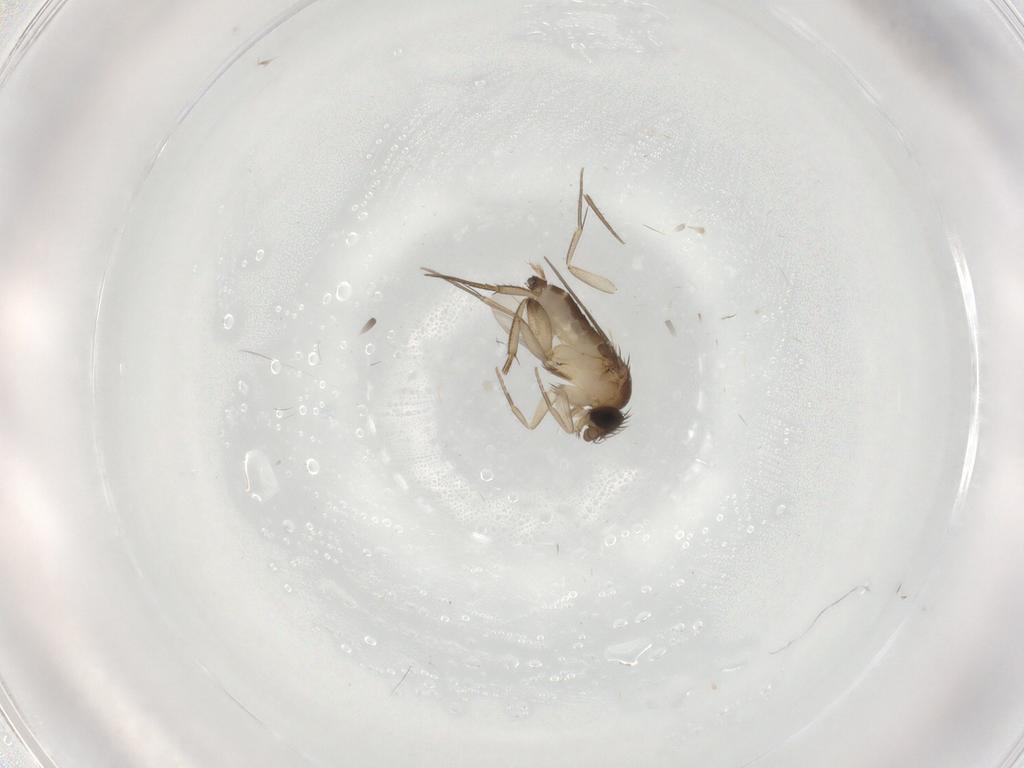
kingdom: Animalia
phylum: Arthropoda
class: Insecta
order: Diptera
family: Phoridae
